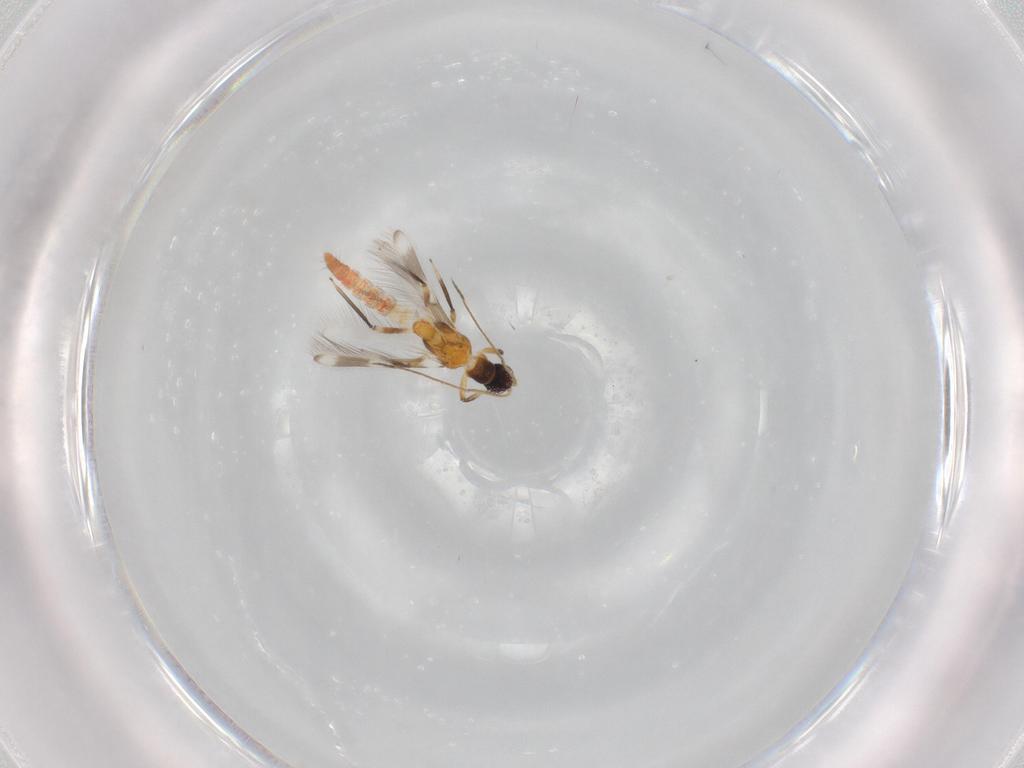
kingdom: Animalia
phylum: Arthropoda
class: Insecta
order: Thysanoptera
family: Aeolothripidae
